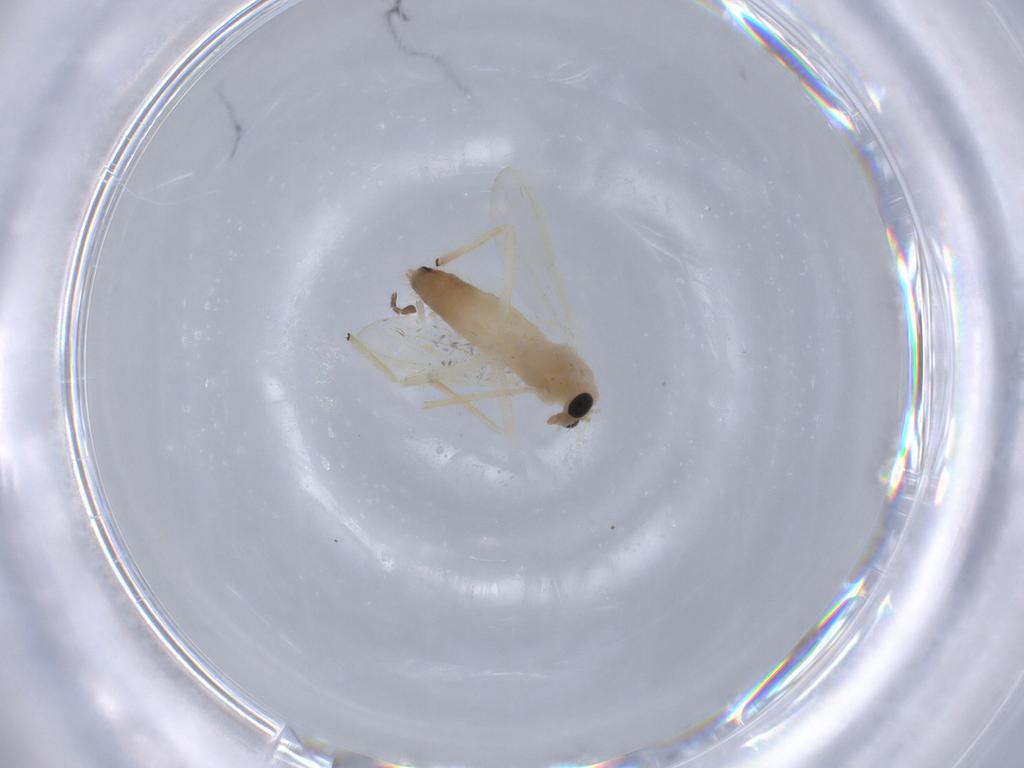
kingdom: Animalia
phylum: Arthropoda
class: Insecta
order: Diptera
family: Chironomidae
